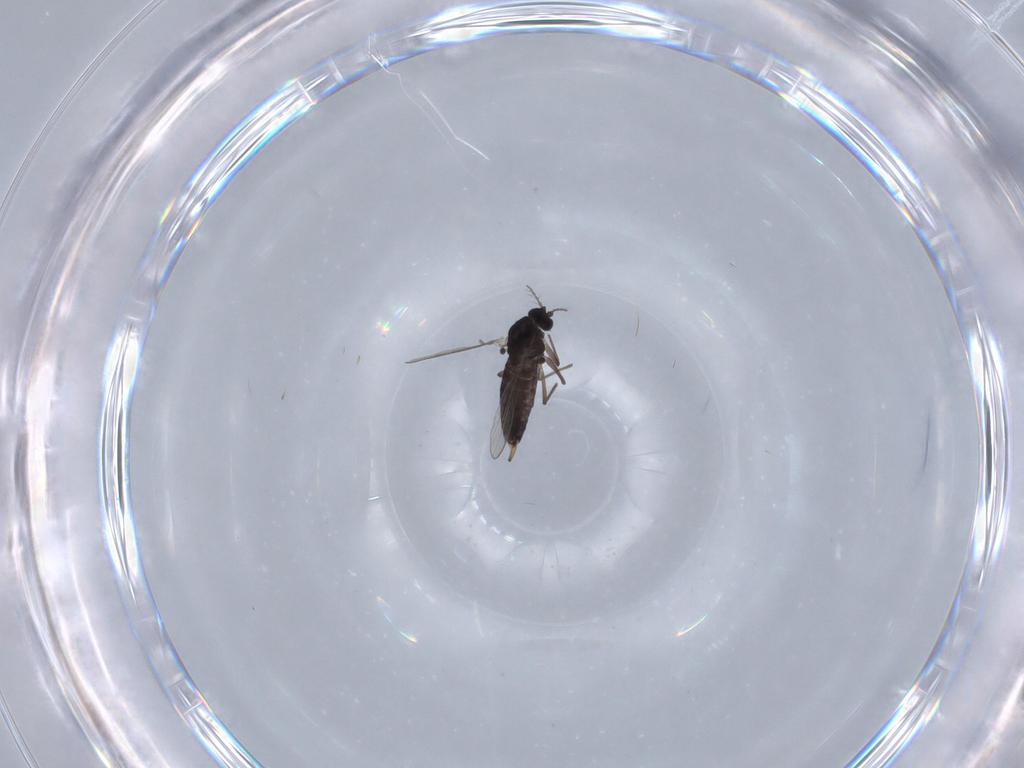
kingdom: Animalia
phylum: Arthropoda
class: Insecta
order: Diptera
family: Chironomidae
